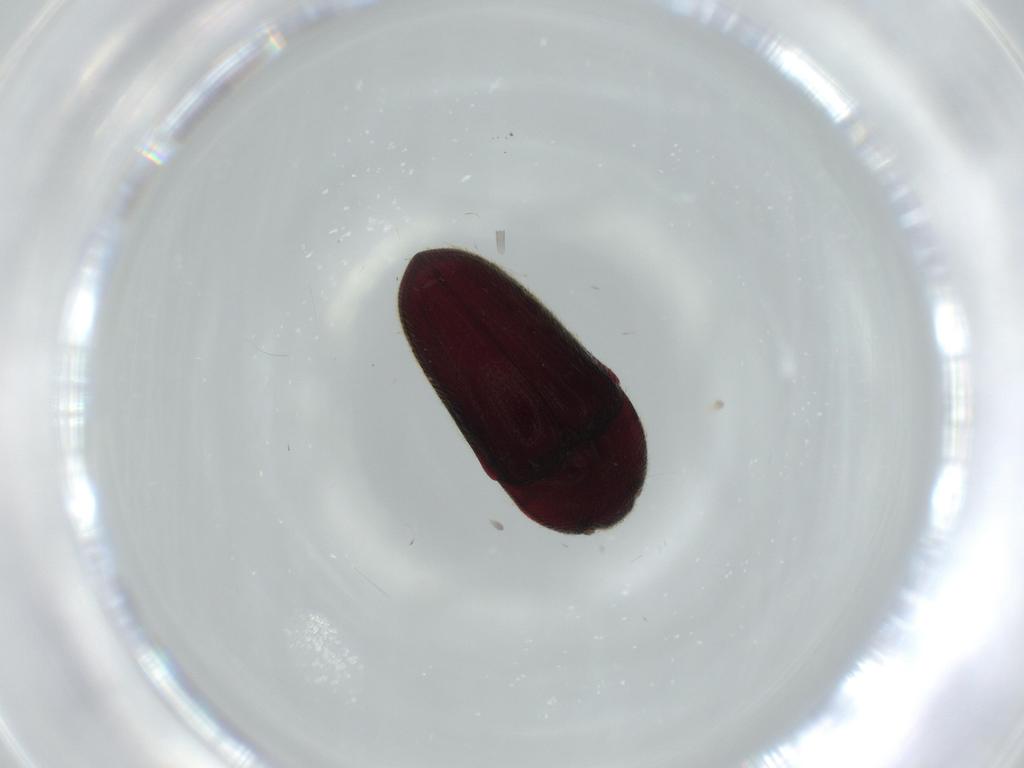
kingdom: Animalia
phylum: Arthropoda
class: Insecta
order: Coleoptera
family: Throscidae
